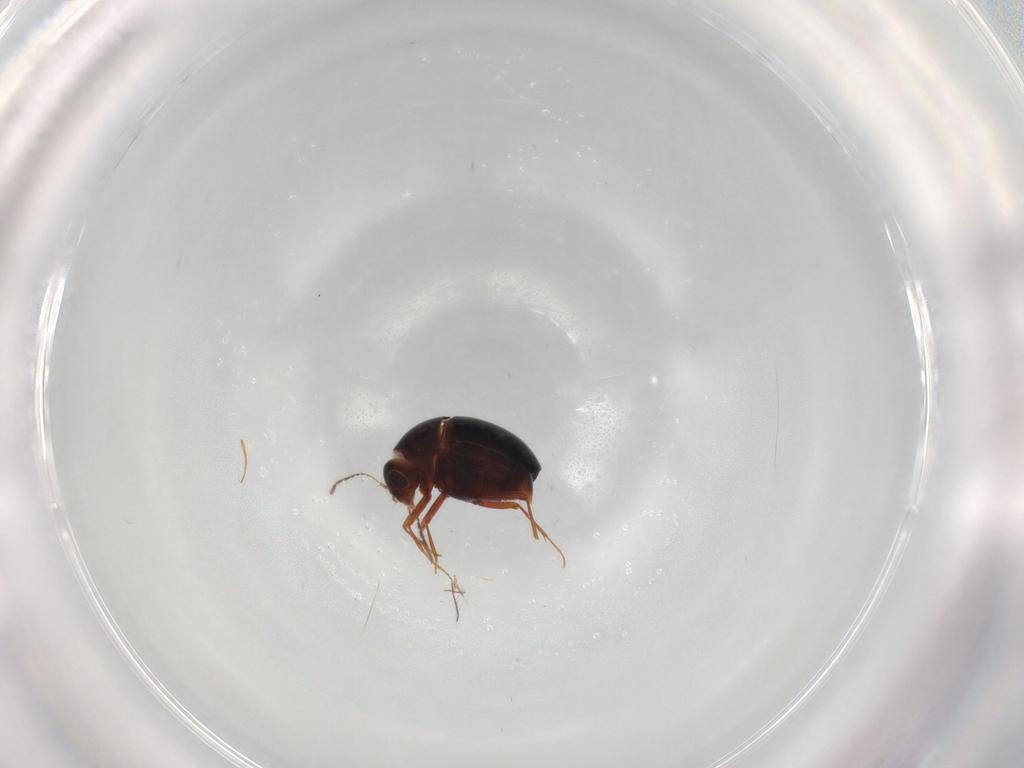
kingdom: Animalia
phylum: Arthropoda
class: Insecta
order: Coleoptera
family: Staphylinidae
